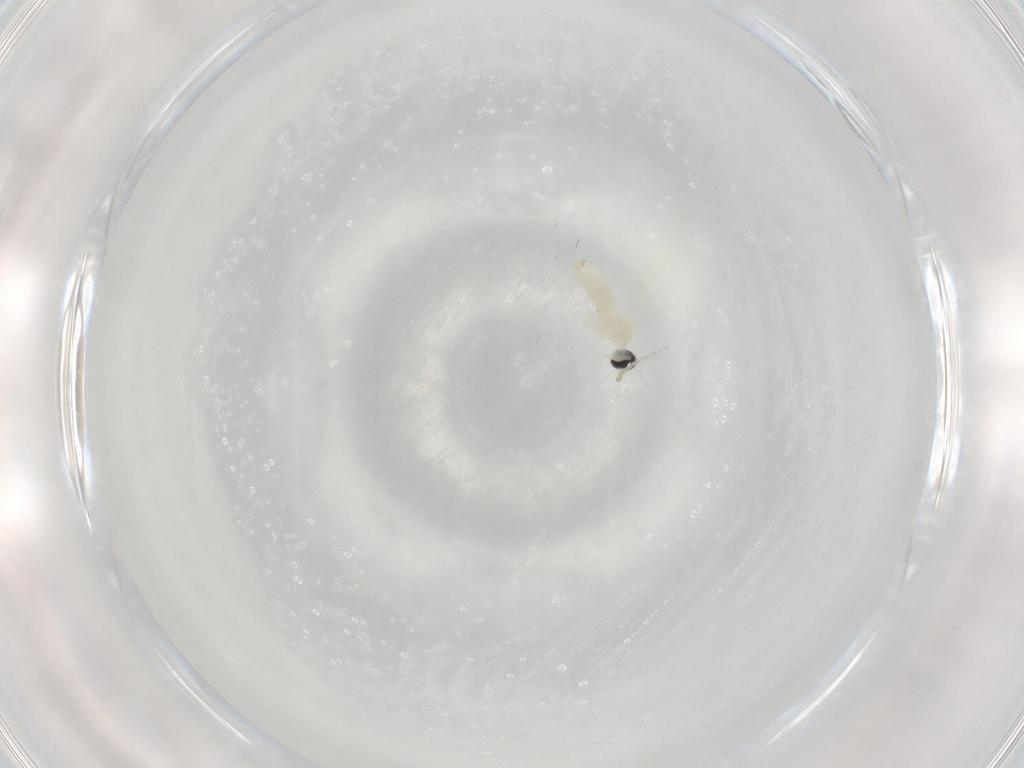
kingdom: Animalia
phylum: Arthropoda
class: Insecta
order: Diptera
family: Cecidomyiidae
